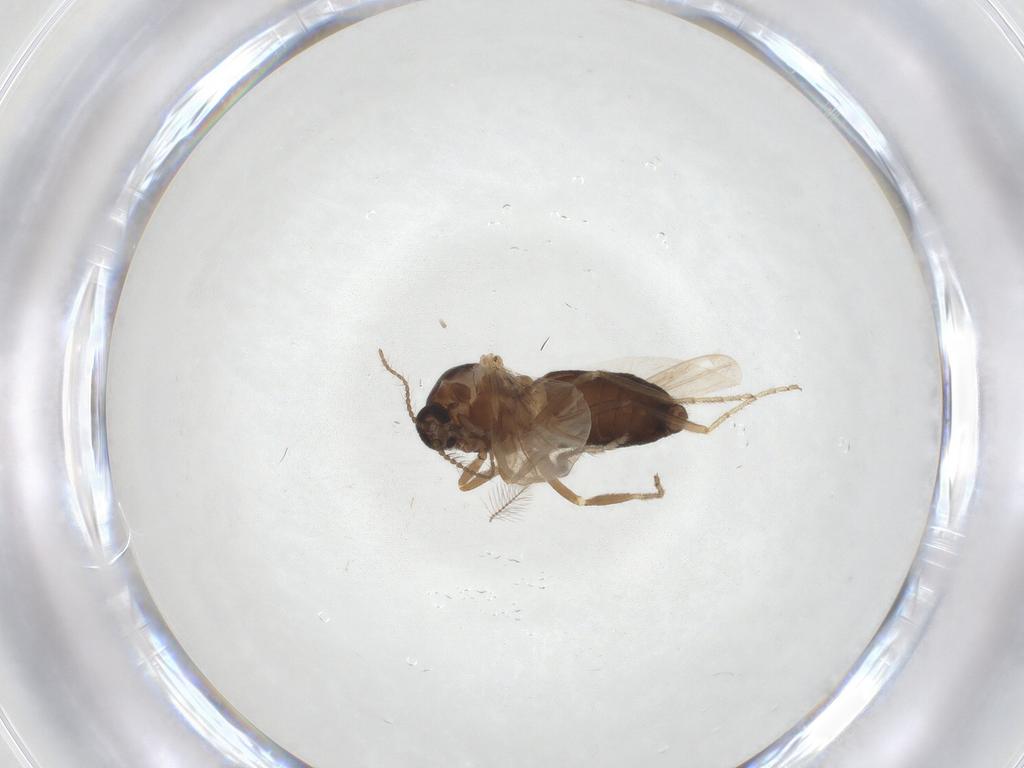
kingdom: Animalia
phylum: Arthropoda
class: Insecta
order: Diptera
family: Ceratopogonidae
